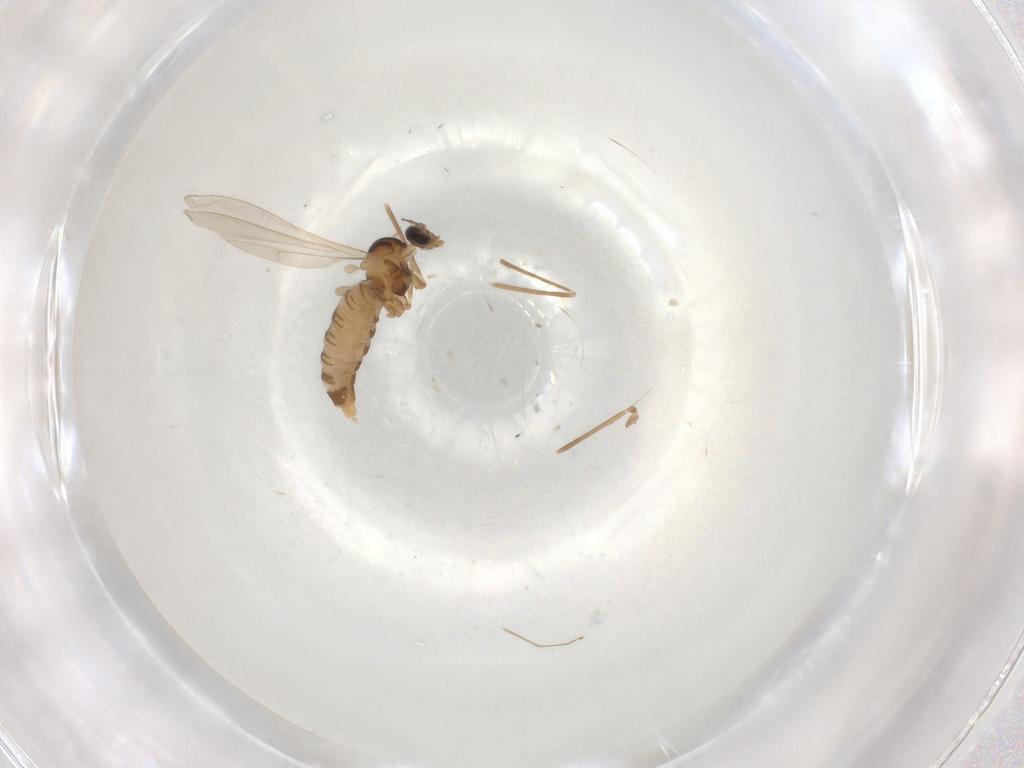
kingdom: Animalia
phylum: Arthropoda
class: Insecta
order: Diptera
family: Cecidomyiidae
